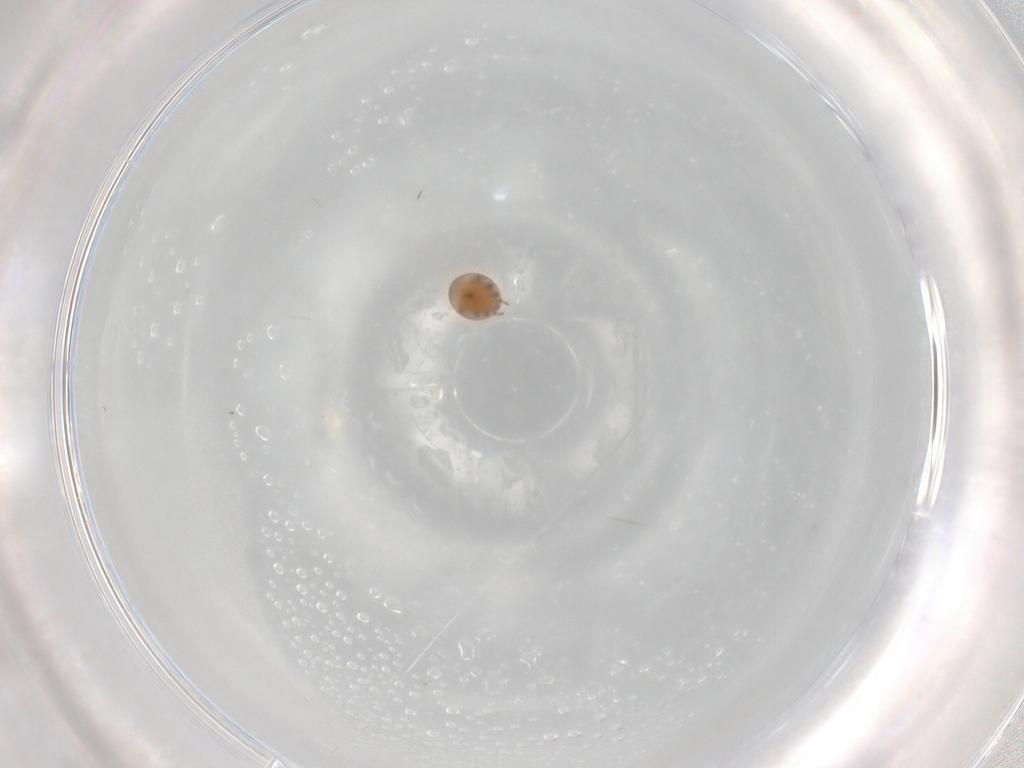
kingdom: Animalia
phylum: Arthropoda
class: Arachnida
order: Mesostigmata
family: Trematuridae
